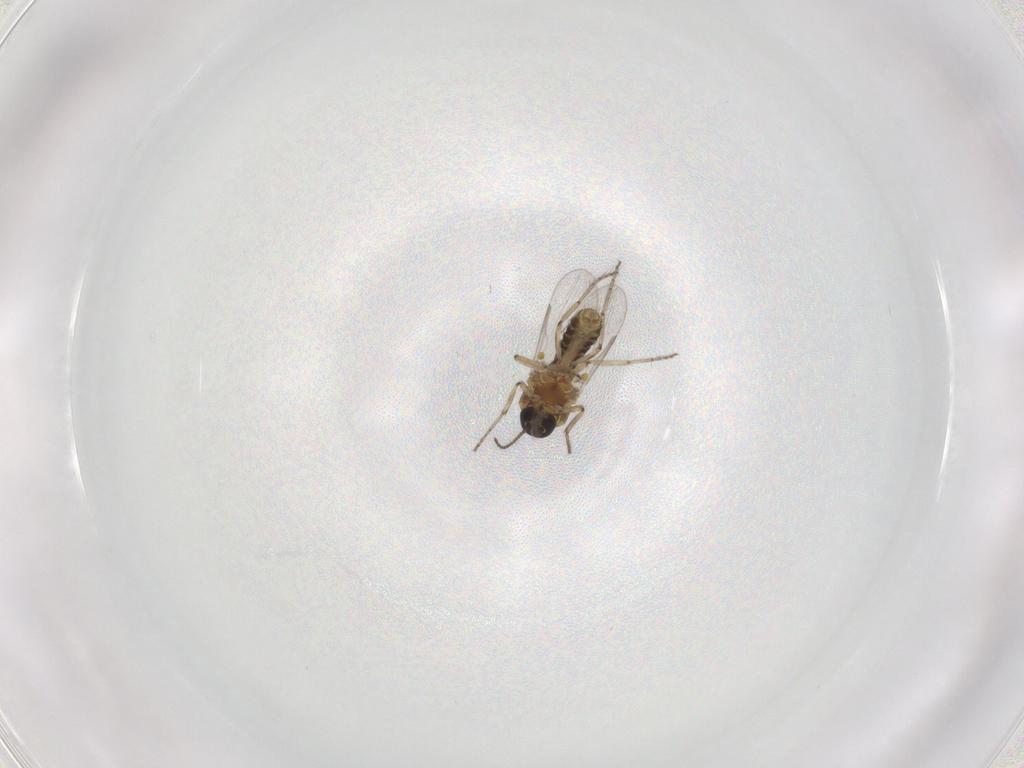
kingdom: Animalia
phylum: Arthropoda
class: Insecta
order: Diptera
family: Ceratopogonidae
